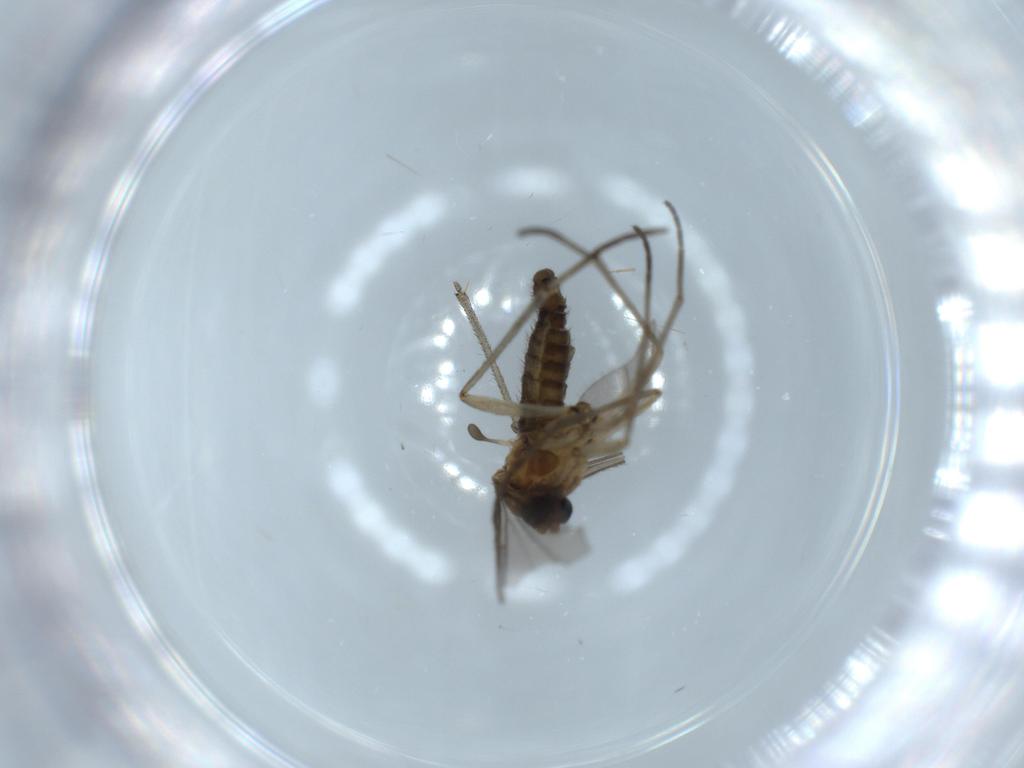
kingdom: Animalia
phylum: Arthropoda
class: Insecta
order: Diptera
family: Sciaridae
